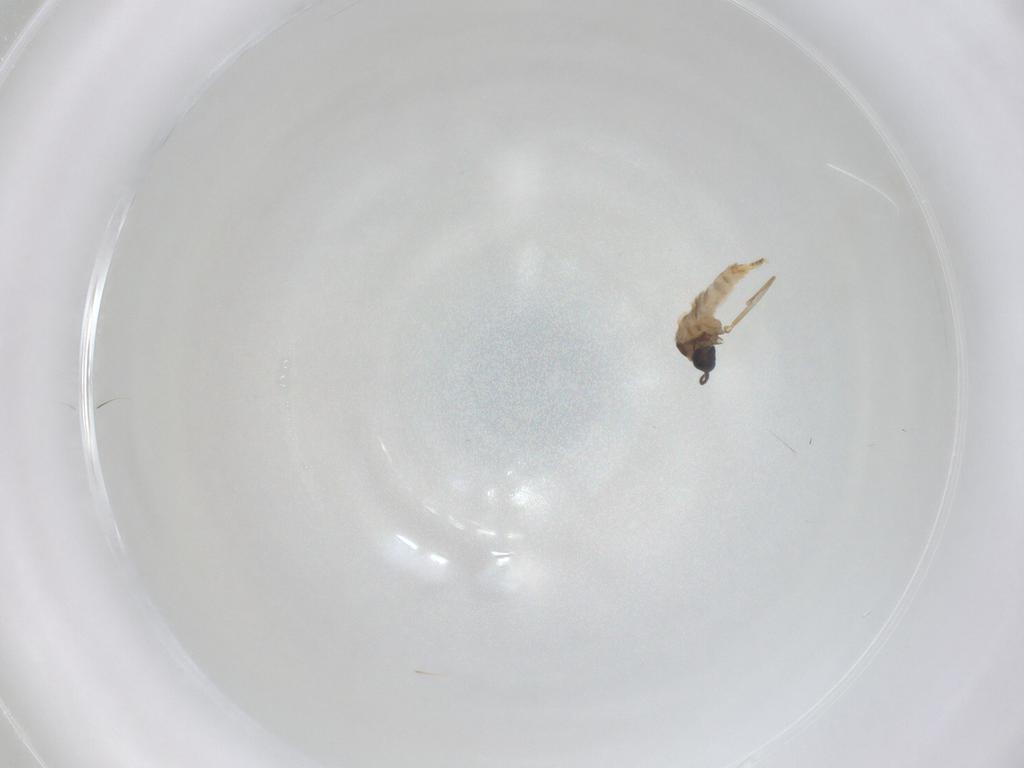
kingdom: Animalia
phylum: Arthropoda
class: Insecta
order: Diptera
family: Cecidomyiidae
